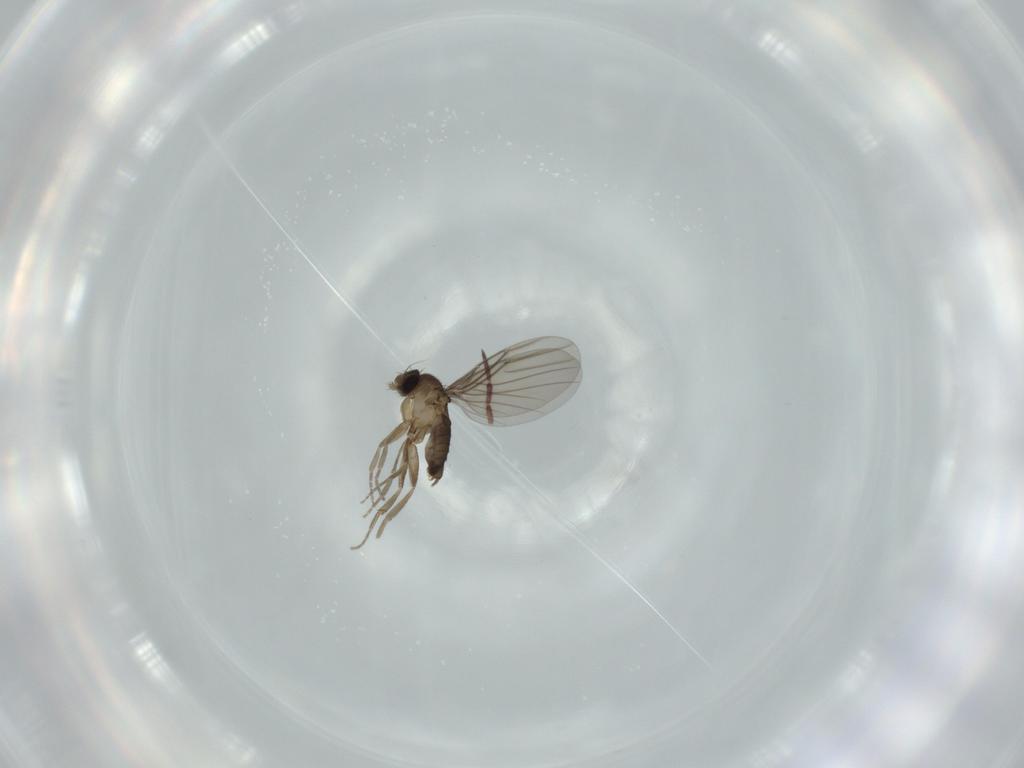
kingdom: Animalia
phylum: Arthropoda
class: Insecta
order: Diptera
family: Phoridae
